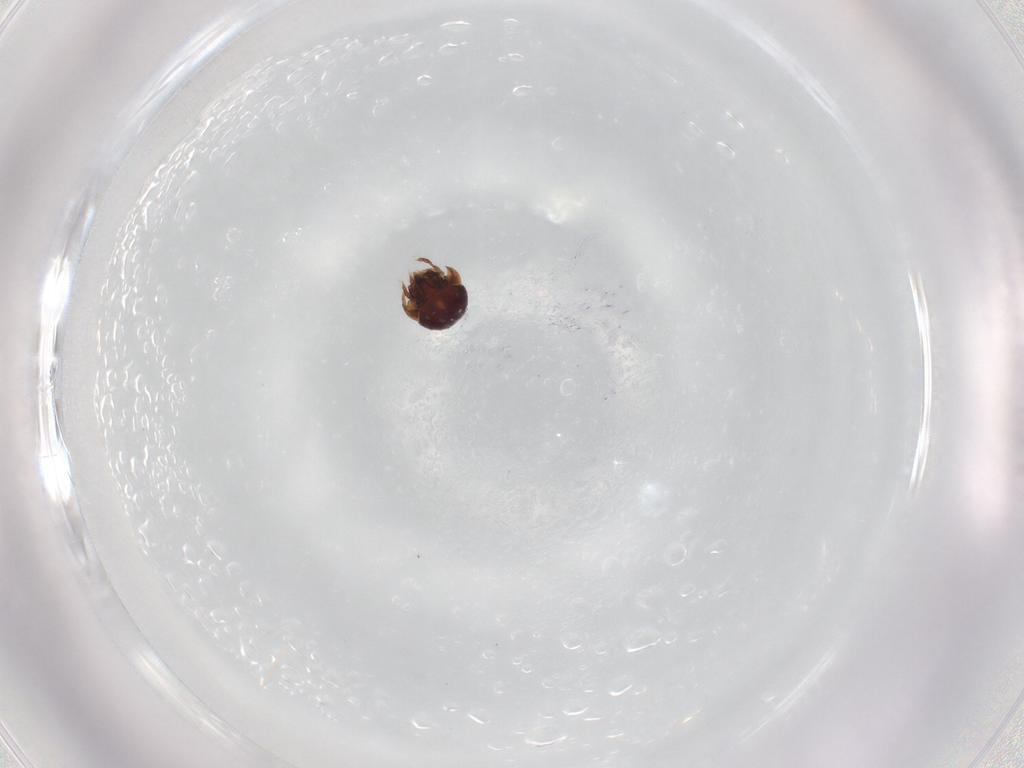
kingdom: Animalia
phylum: Arthropoda
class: Arachnida
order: Sarcoptiformes
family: Phenopelopidae
